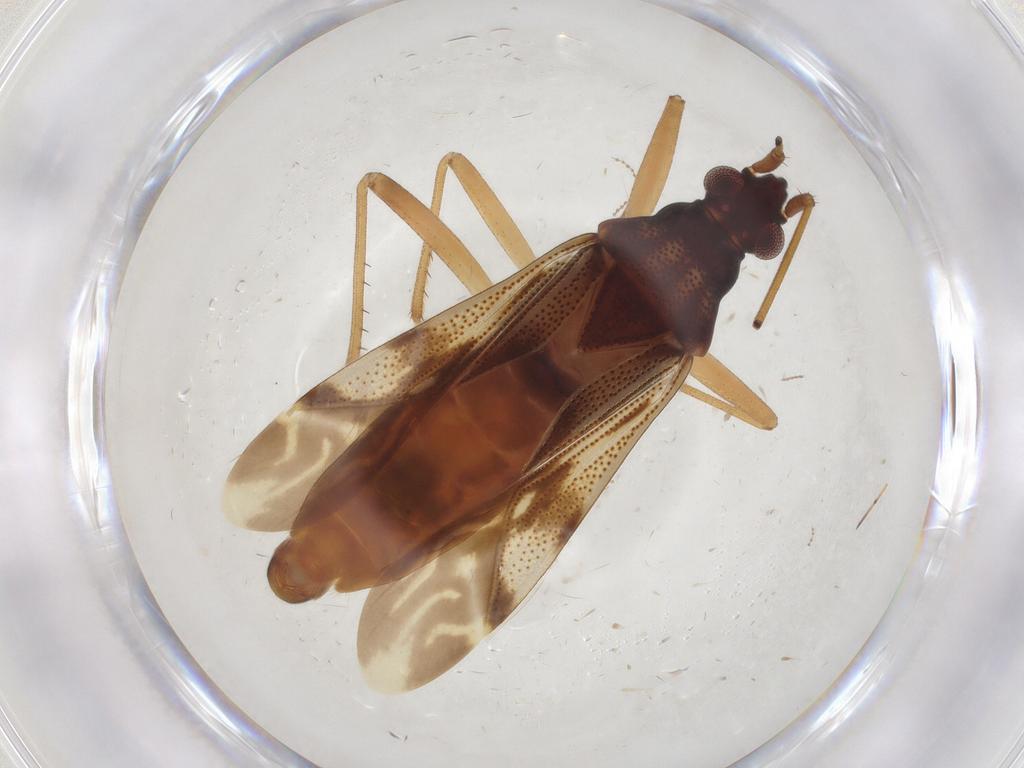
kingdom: Animalia
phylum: Arthropoda
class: Insecta
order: Hemiptera
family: Rhyparochromidae
